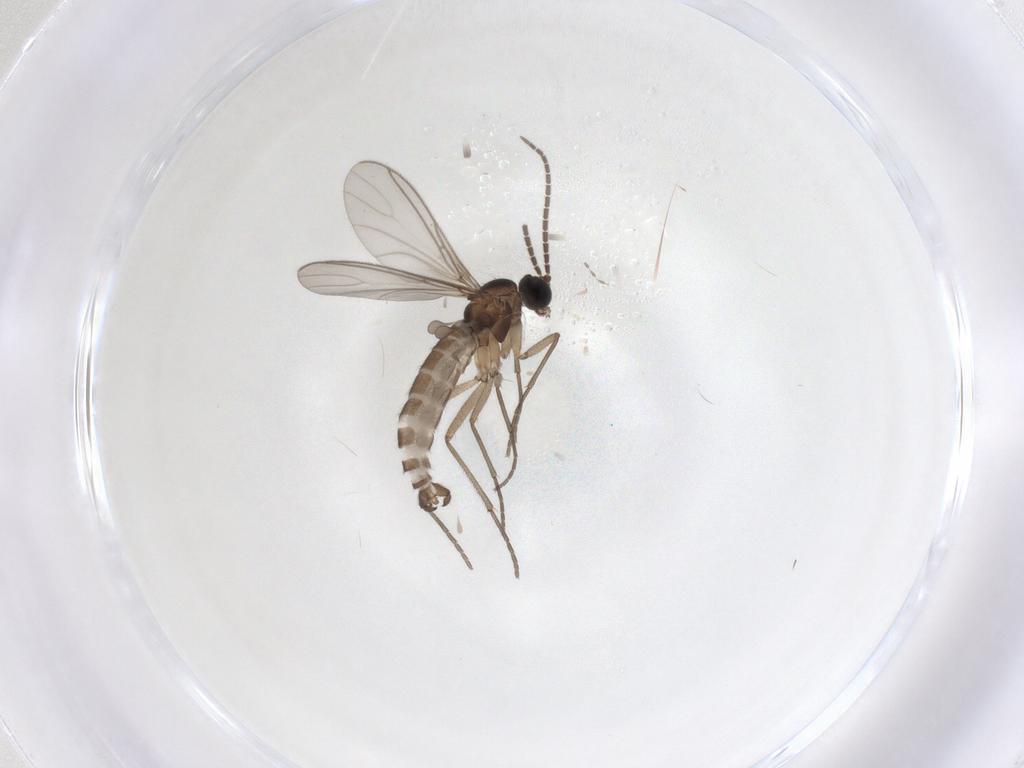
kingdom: Animalia
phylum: Arthropoda
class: Insecta
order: Diptera
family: Sciaridae
